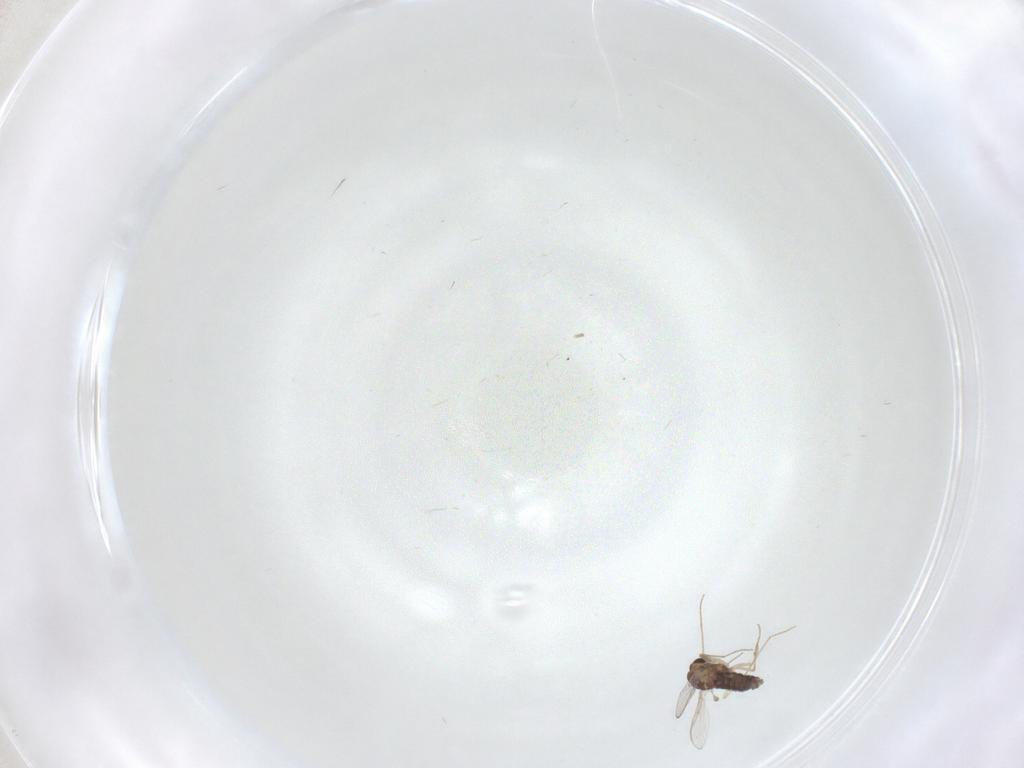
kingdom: Animalia
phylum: Arthropoda
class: Insecta
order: Diptera
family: Chironomidae
